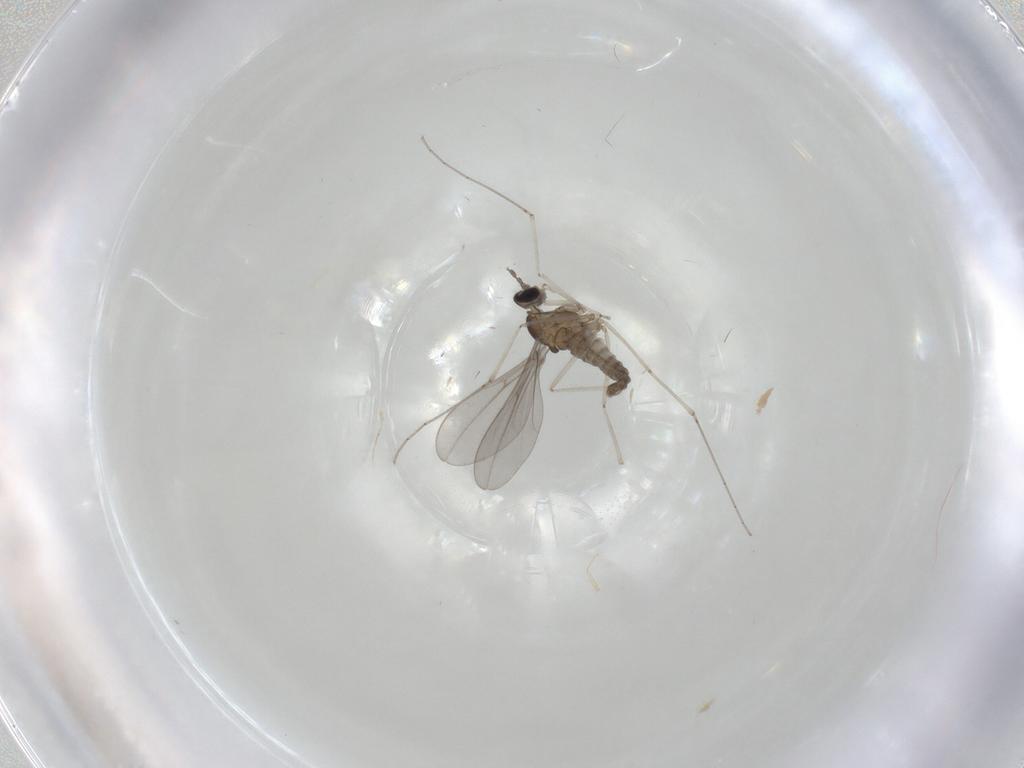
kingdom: Animalia
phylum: Arthropoda
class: Insecta
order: Diptera
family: Cecidomyiidae
